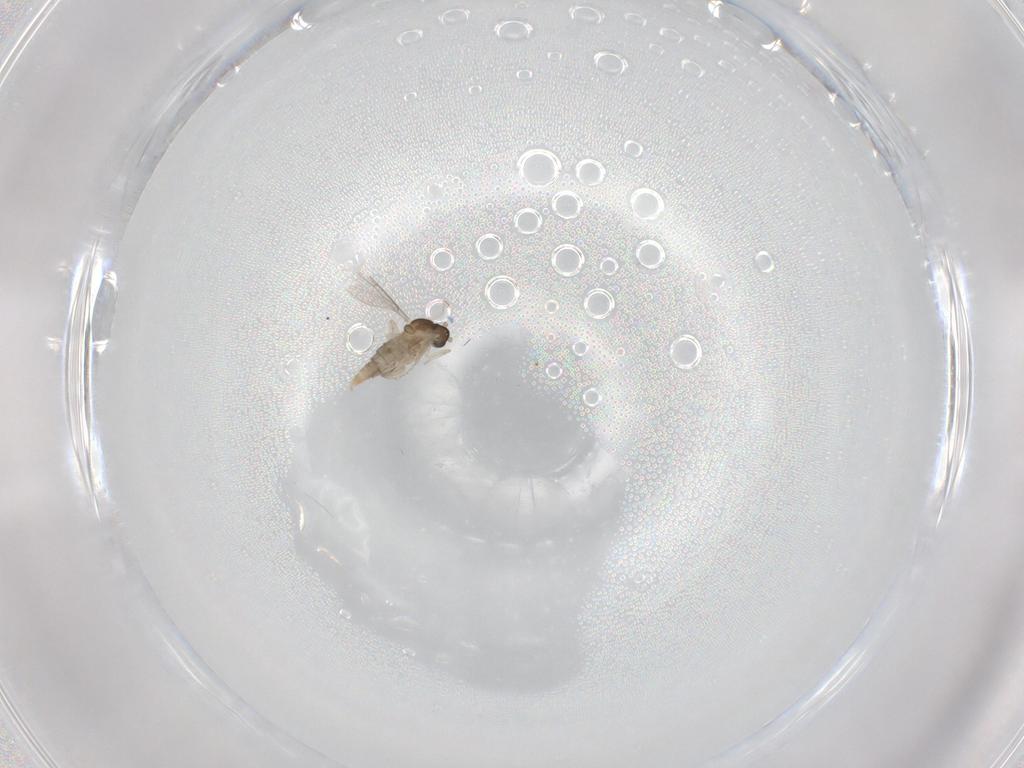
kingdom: Animalia
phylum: Arthropoda
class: Insecta
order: Diptera
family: Cecidomyiidae
